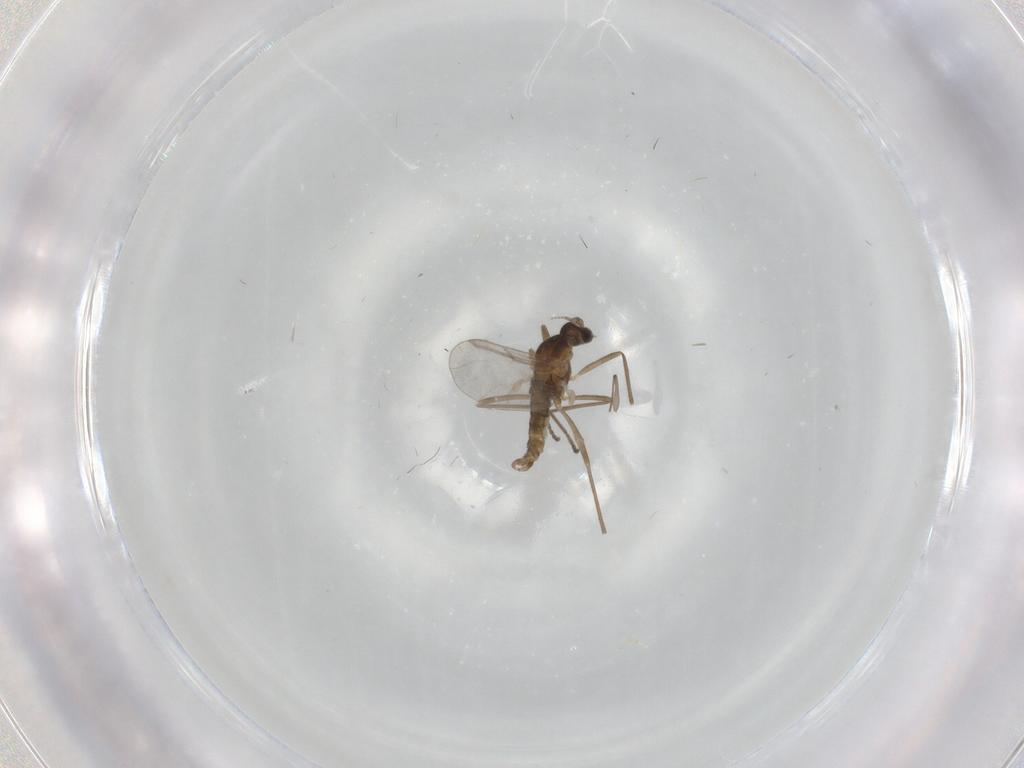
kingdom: Animalia
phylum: Arthropoda
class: Insecta
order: Diptera
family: Cecidomyiidae
